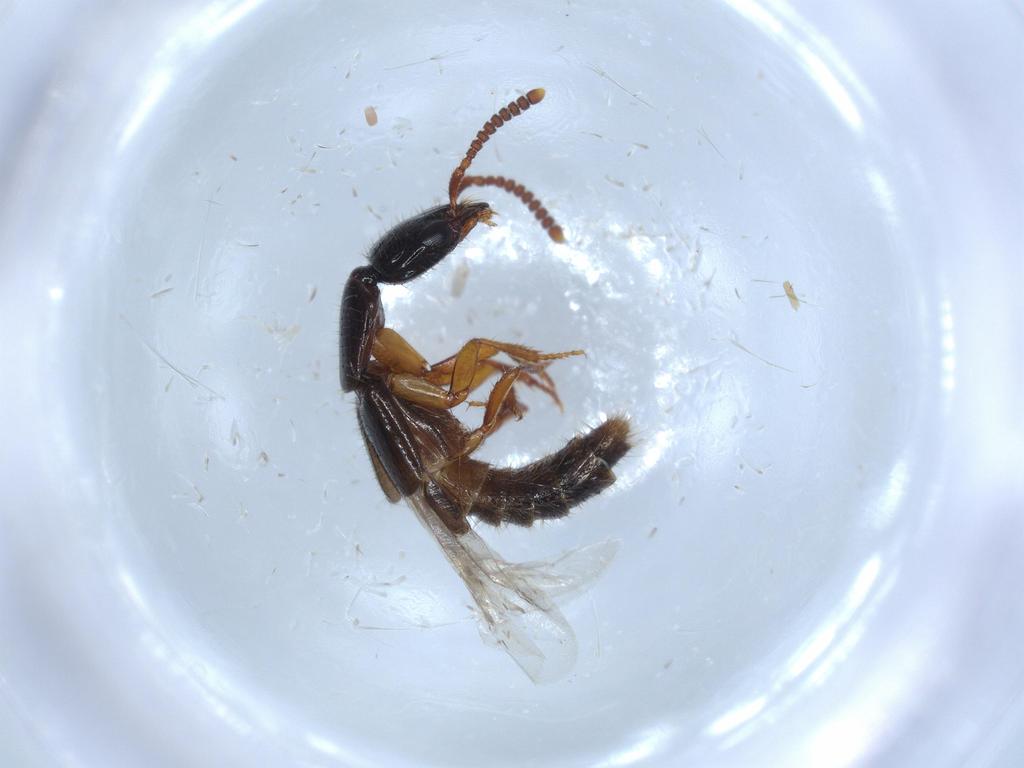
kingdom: Animalia
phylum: Arthropoda
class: Insecta
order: Coleoptera
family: Staphylinidae
